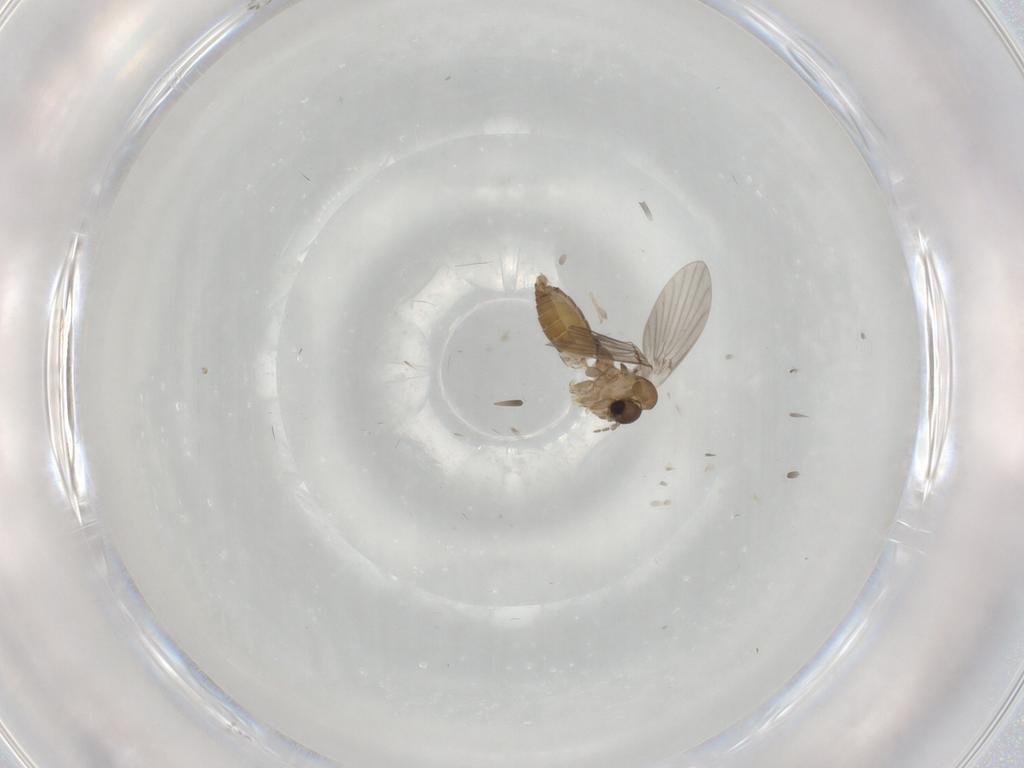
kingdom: Animalia
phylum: Arthropoda
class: Insecta
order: Diptera
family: Cecidomyiidae
